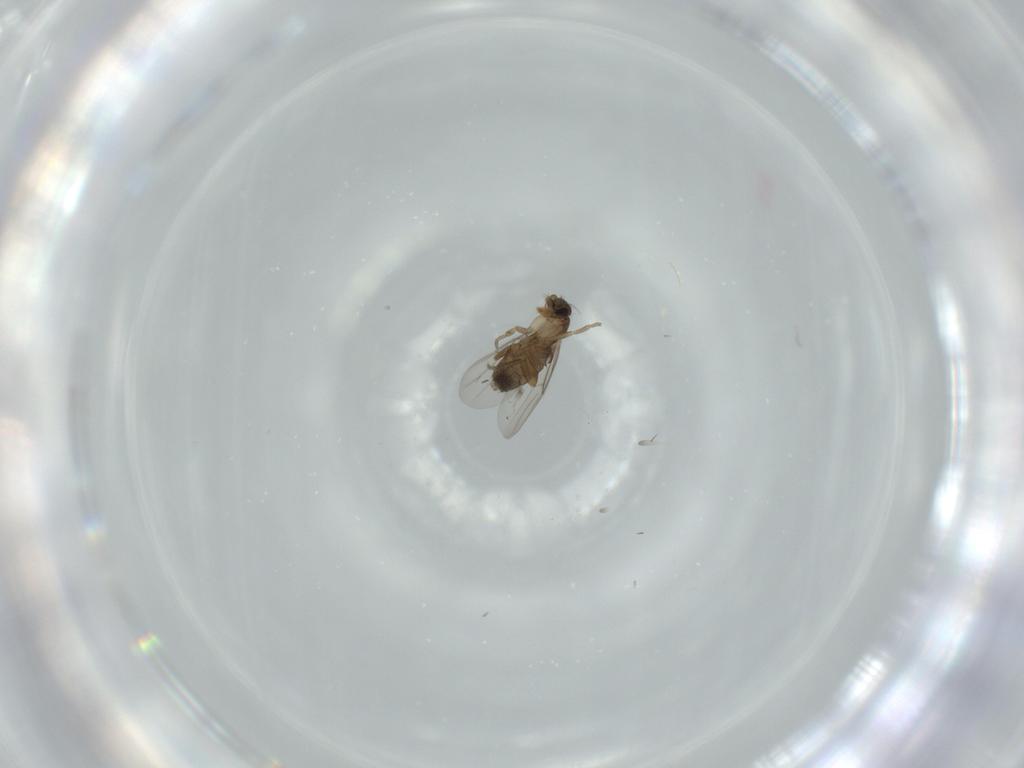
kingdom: Animalia
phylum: Arthropoda
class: Insecta
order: Diptera
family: Phoridae
